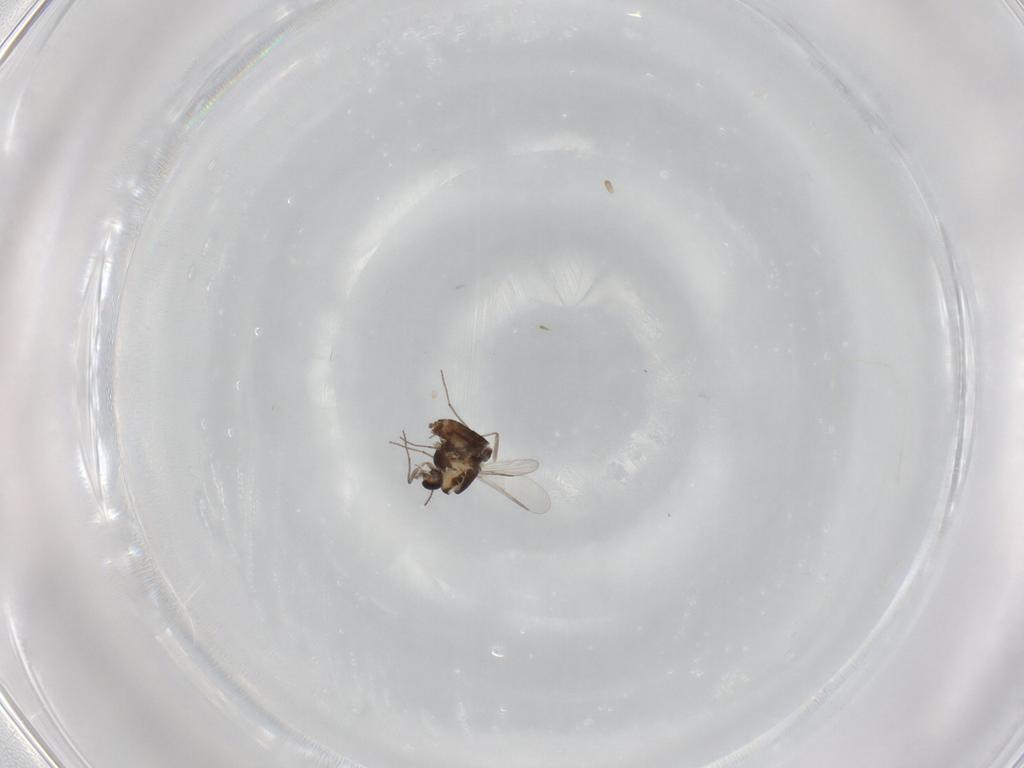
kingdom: Animalia
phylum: Arthropoda
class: Insecta
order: Diptera
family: Chironomidae
